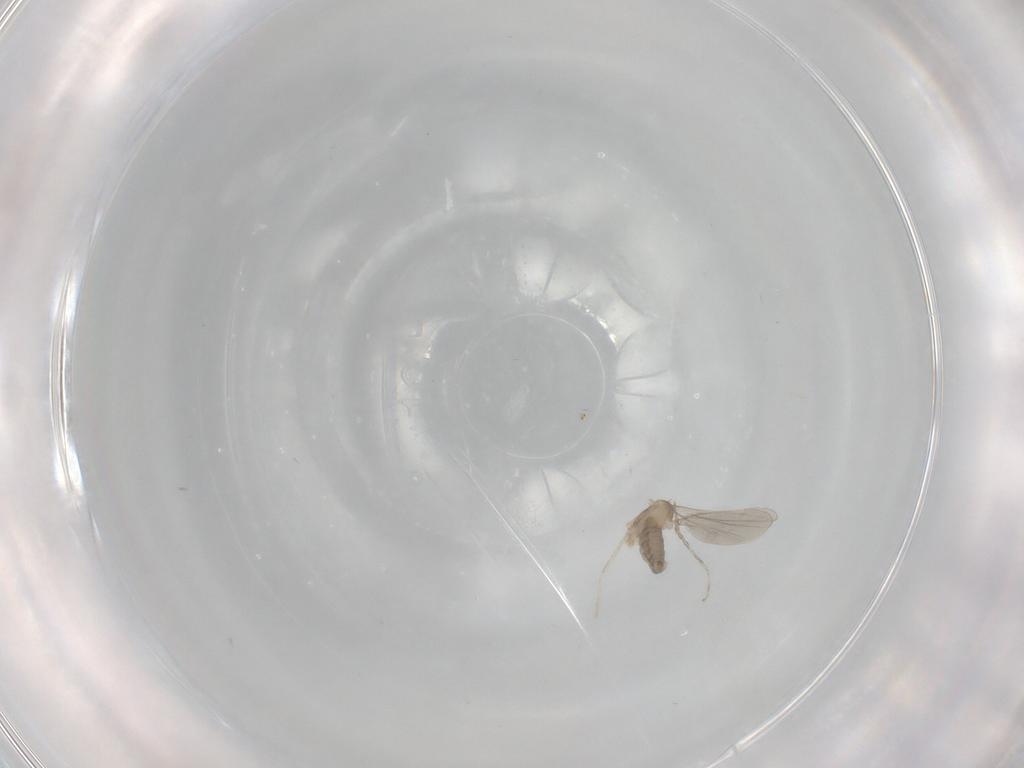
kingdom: Animalia
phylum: Arthropoda
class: Insecta
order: Diptera
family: Cecidomyiidae
